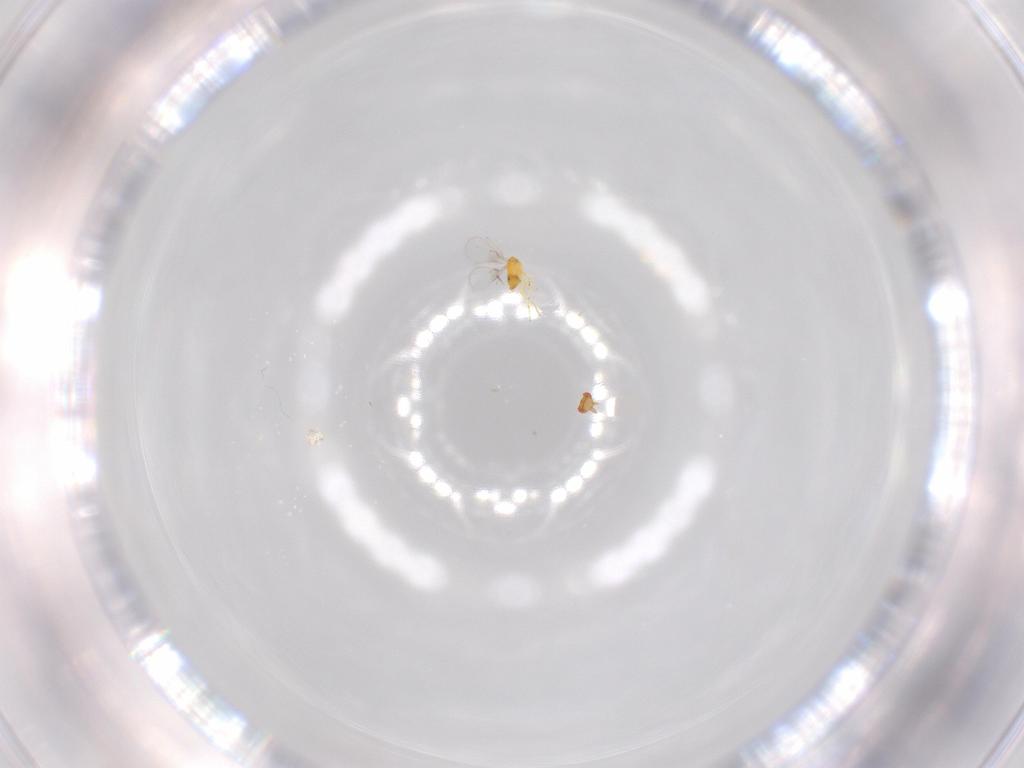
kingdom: Animalia
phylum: Arthropoda
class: Insecta
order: Hymenoptera
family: Trichogrammatidae
